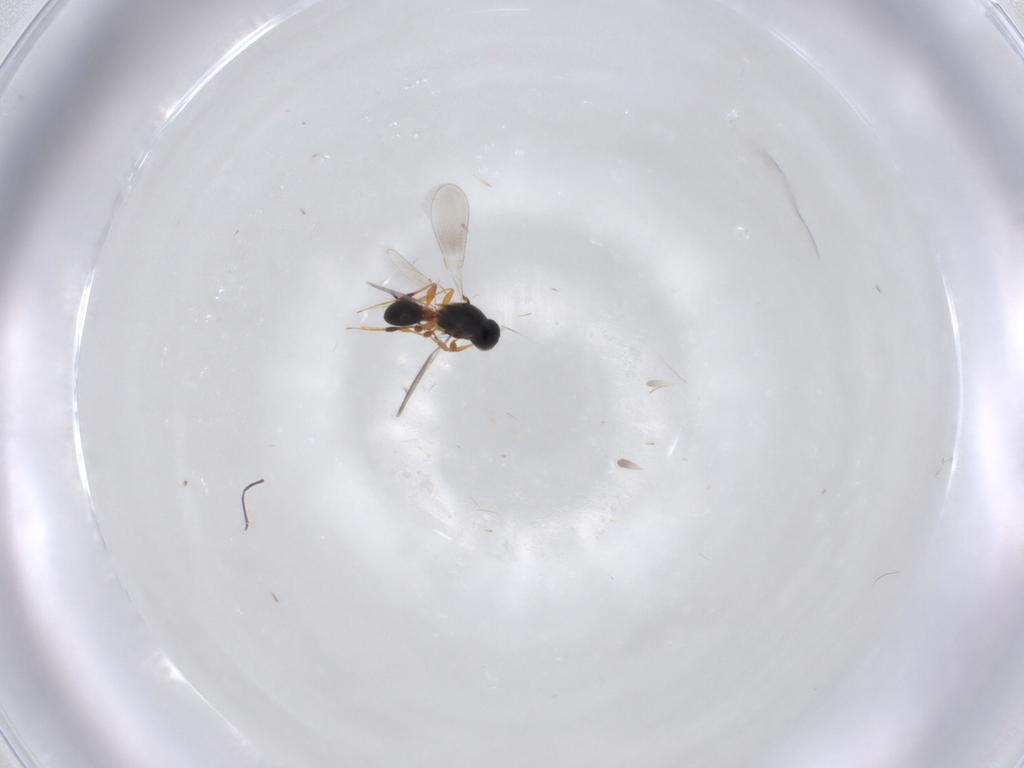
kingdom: Animalia
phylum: Arthropoda
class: Insecta
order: Hymenoptera
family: Platygastridae
